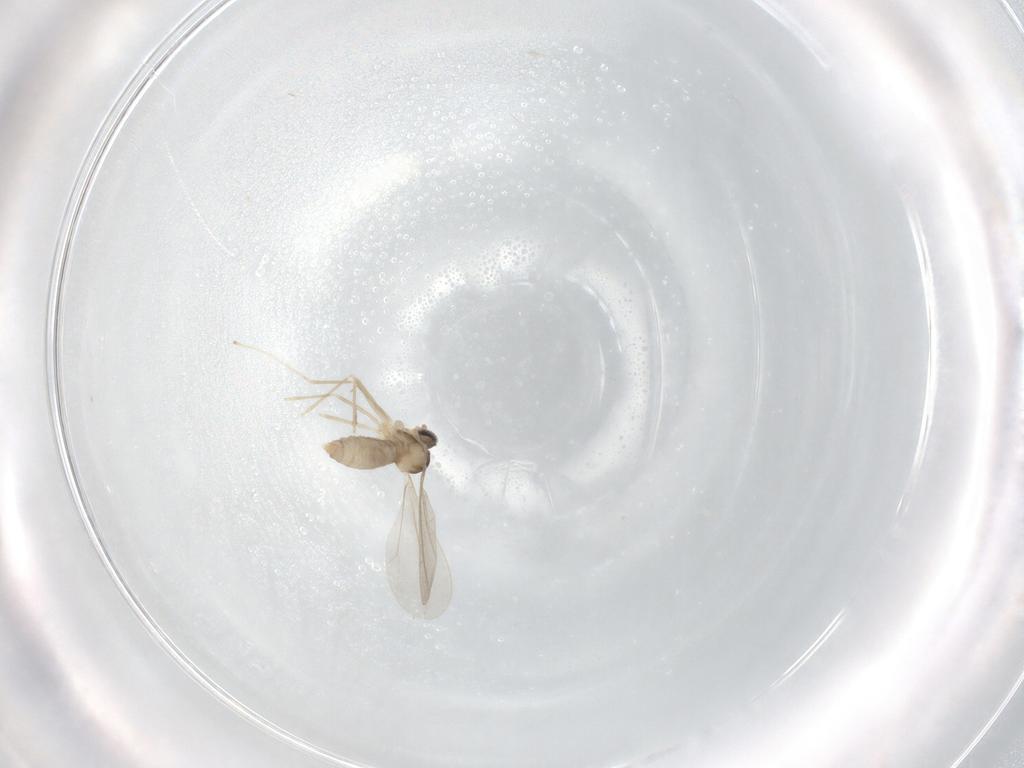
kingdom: Animalia
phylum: Arthropoda
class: Insecta
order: Diptera
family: Cecidomyiidae
